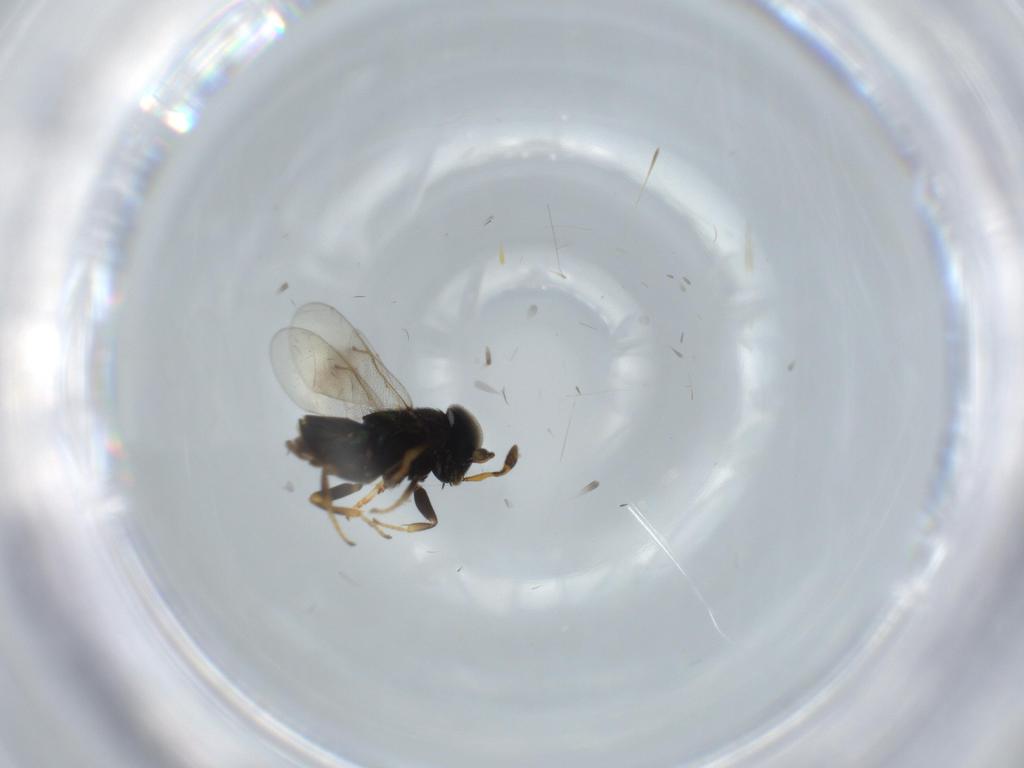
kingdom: Animalia
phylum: Arthropoda
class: Insecta
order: Hymenoptera
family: Encyrtidae
